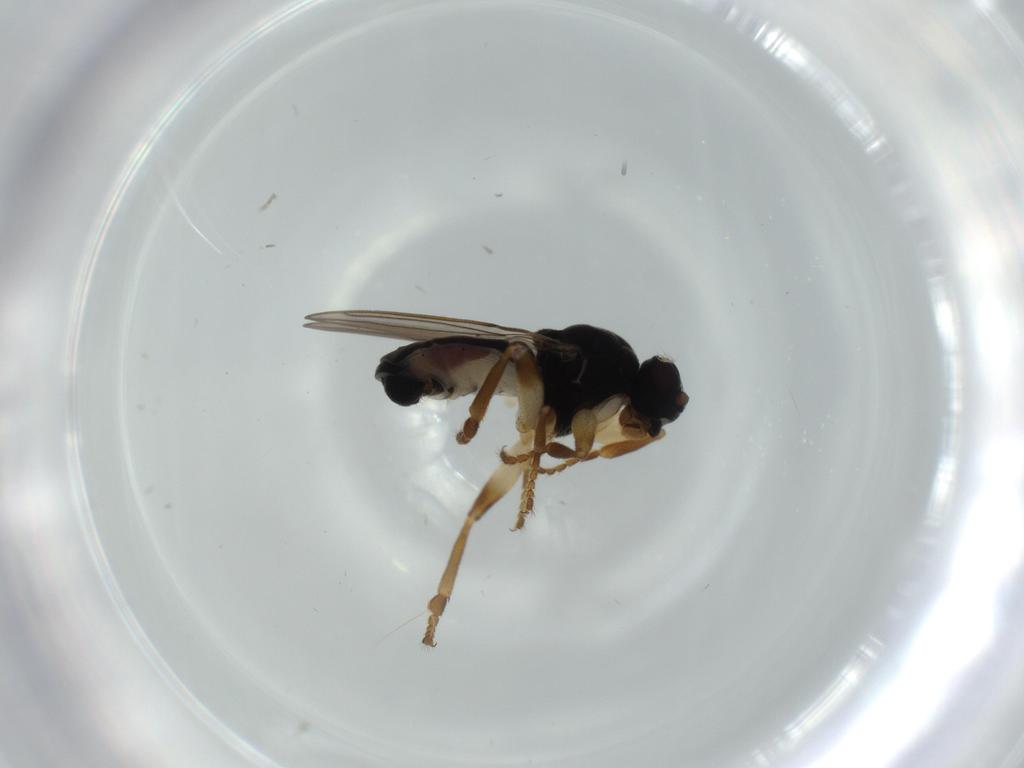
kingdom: Animalia
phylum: Arthropoda
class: Insecta
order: Diptera
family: Sphaeroceridae
